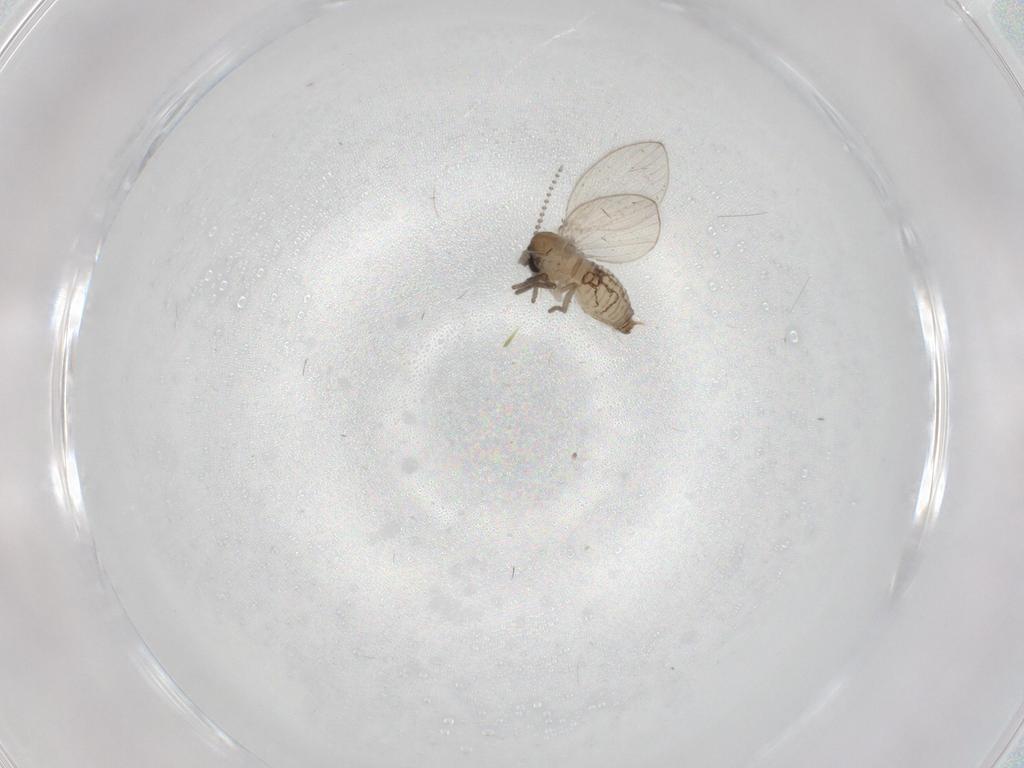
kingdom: Animalia
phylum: Arthropoda
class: Insecta
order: Diptera
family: Psychodidae
